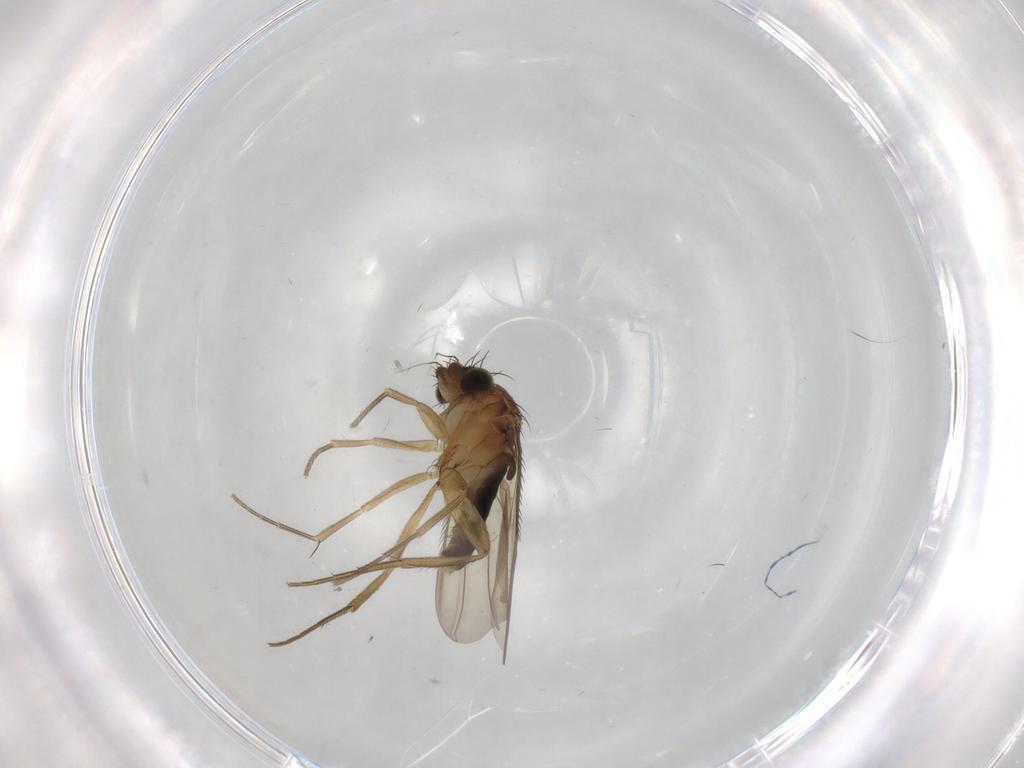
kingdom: Animalia
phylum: Arthropoda
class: Insecta
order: Diptera
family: Phoridae
